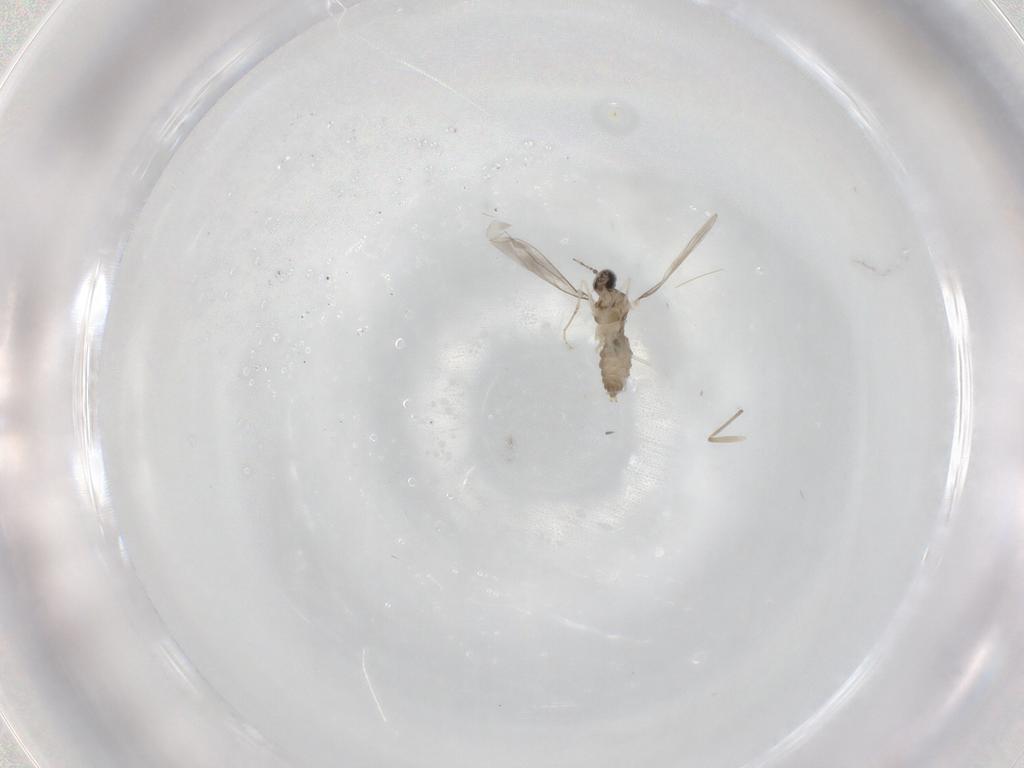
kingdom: Animalia
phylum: Arthropoda
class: Insecta
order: Diptera
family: Cecidomyiidae
